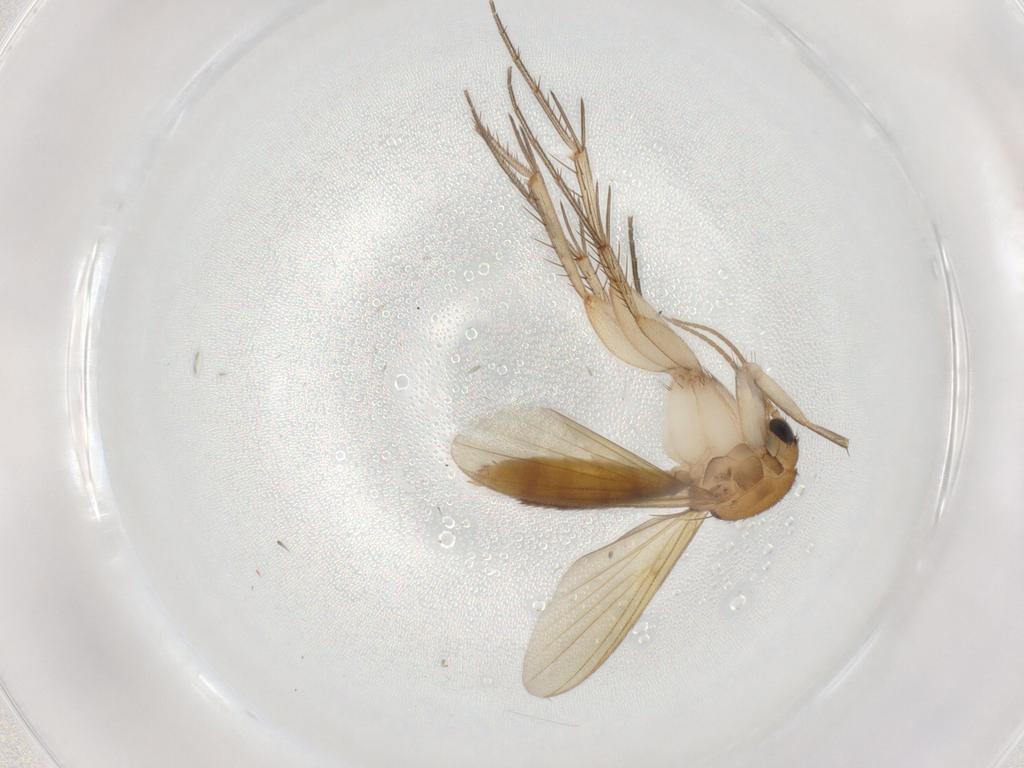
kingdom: Animalia
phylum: Arthropoda
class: Insecta
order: Diptera
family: Mycetophilidae
